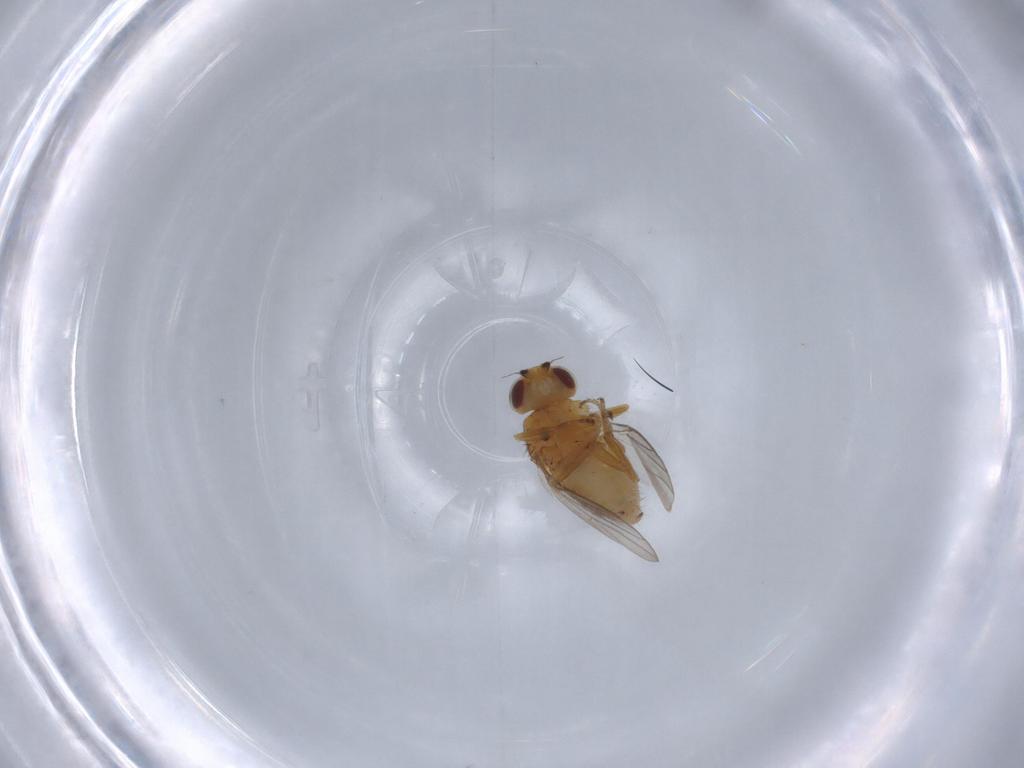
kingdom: Animalia
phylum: Arthropoda
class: Insecta
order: Diptera
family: Chloropidae
